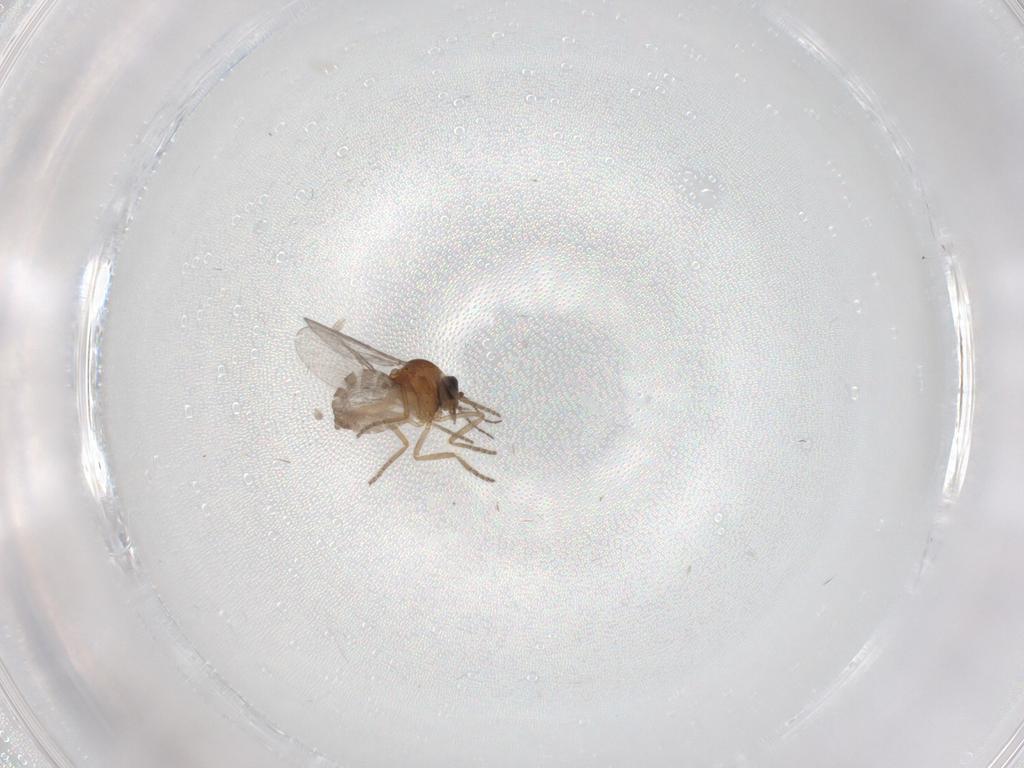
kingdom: Animalia
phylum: Arthropoda
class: Insecta
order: Diptera
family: Ceratopogonidae
